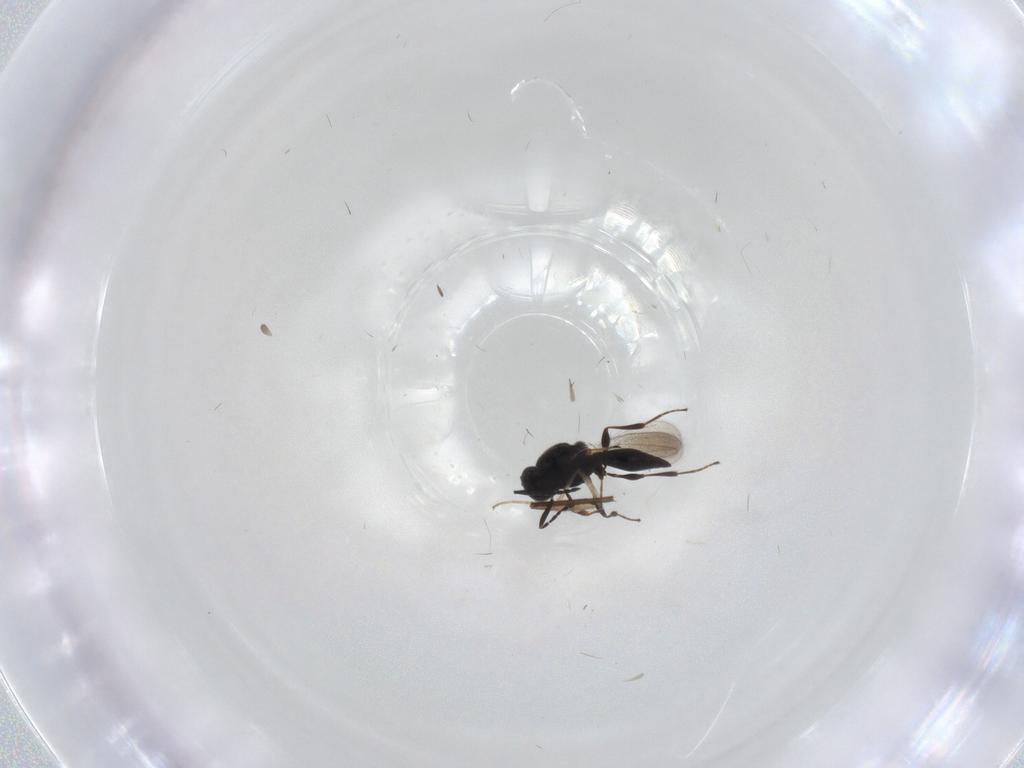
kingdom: Animalia
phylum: Arthropoda
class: Insecta
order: Hymenoptera
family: Platygastridae
